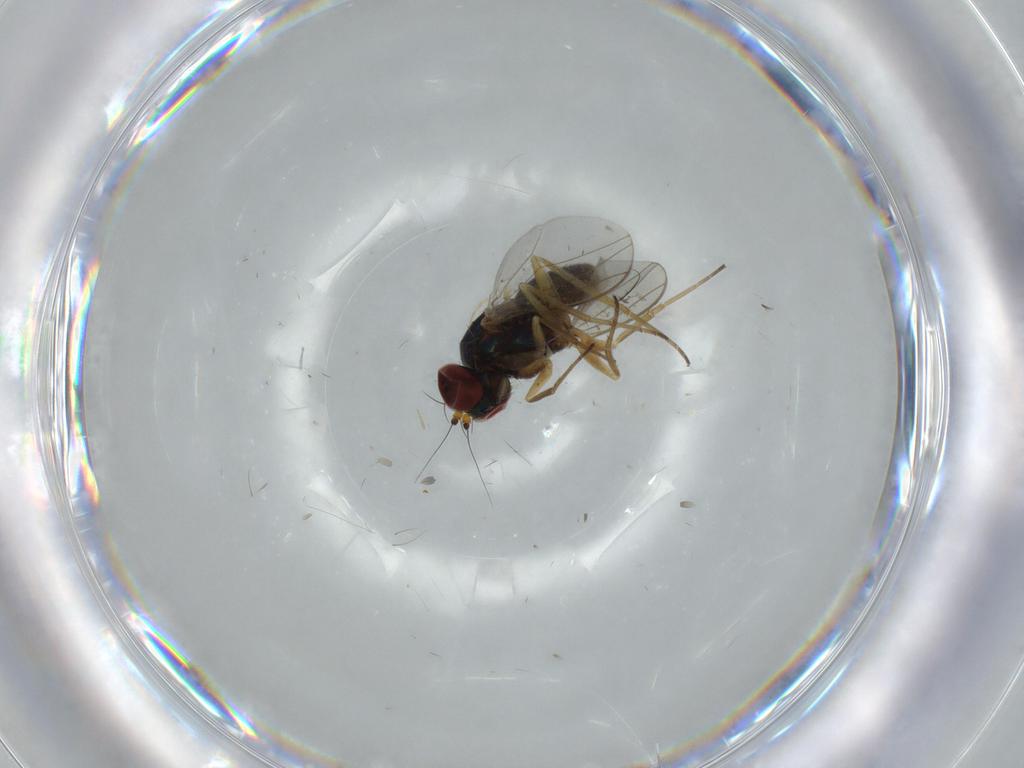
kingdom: Animalia
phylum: Arthropoda
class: Insecta
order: Diptera
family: Dolichopodidae
